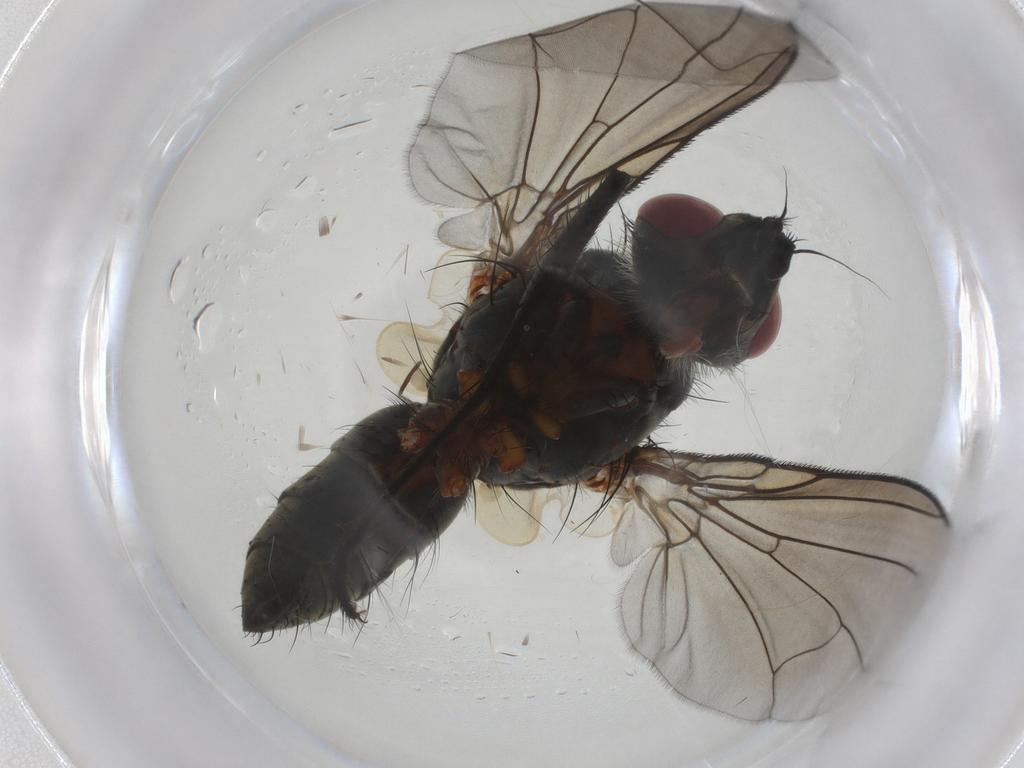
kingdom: Animalia
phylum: Arthropoda
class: Insecta
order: Diptera
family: Tachinidae
